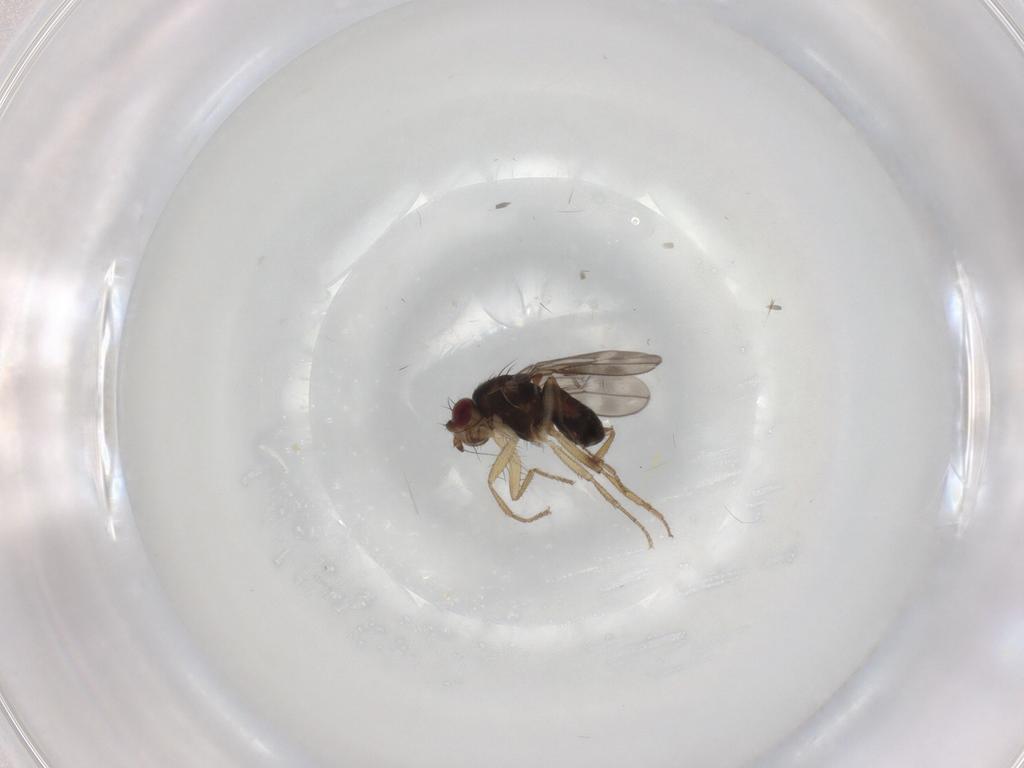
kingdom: Animalia
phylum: Arthropoda
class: Insecta
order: Diptera
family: Sphaeroceridae
